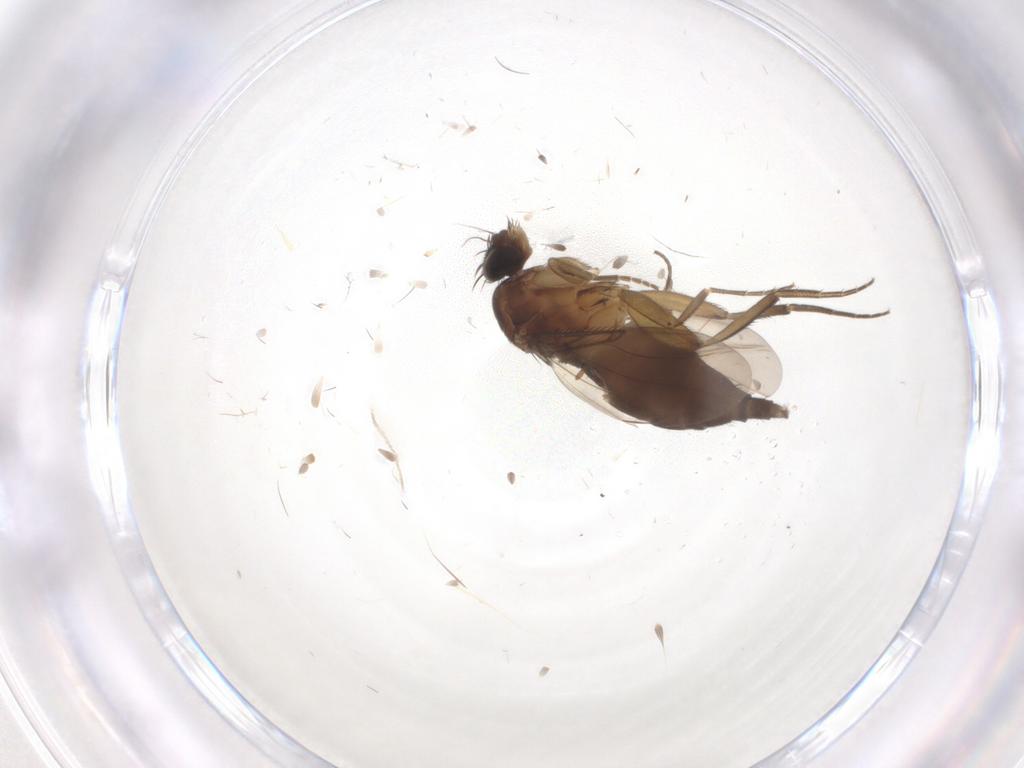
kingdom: Animalia
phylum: Arthropoda
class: Insecta
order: Diptera
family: Phoridae
